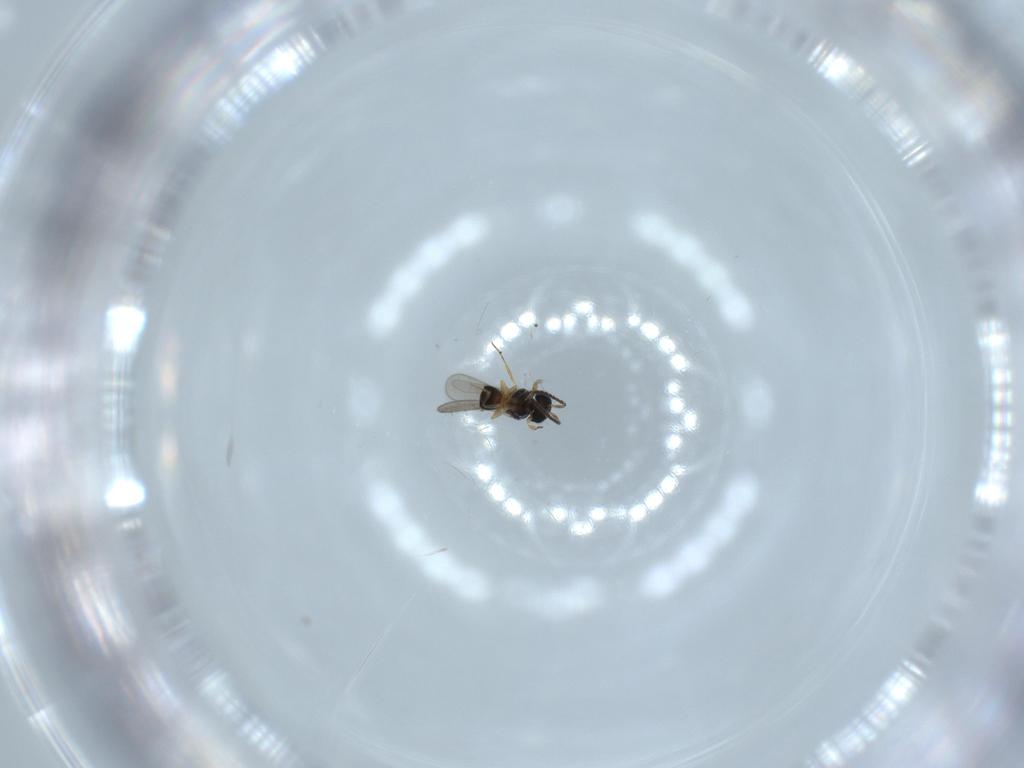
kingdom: Animalia
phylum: Arthropoda
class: Insecta
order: Hymenoptera
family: Scelionidae
